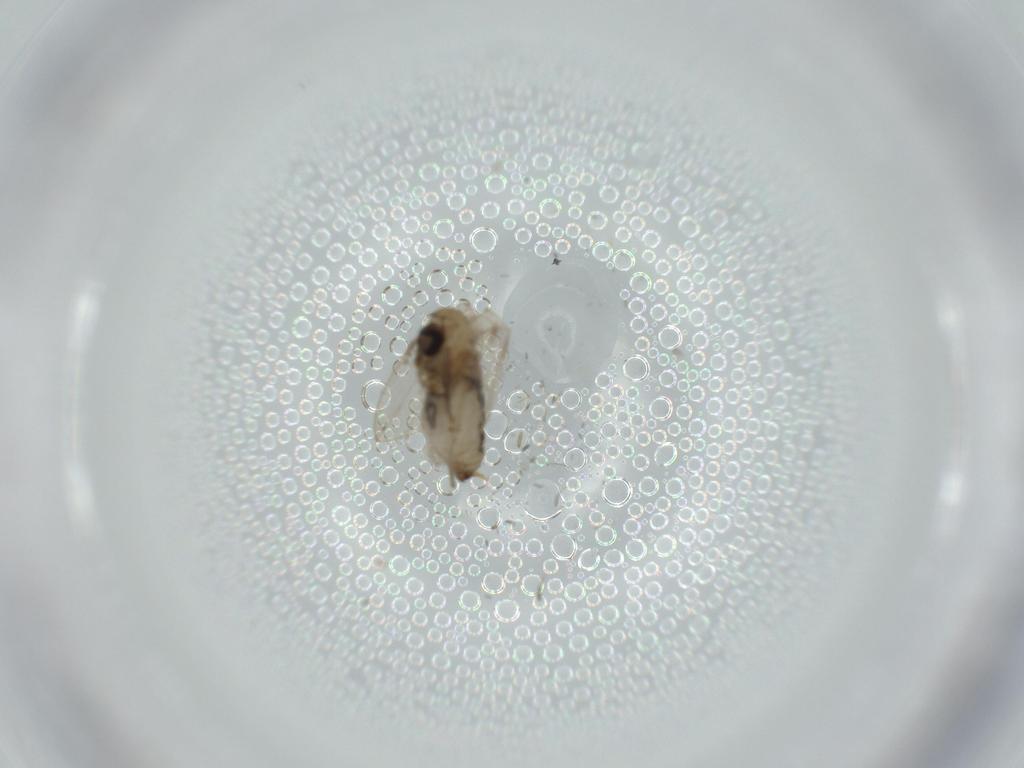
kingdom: Animalia
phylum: Arthropoda
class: Insecta
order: Diptera
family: Psychodidae
